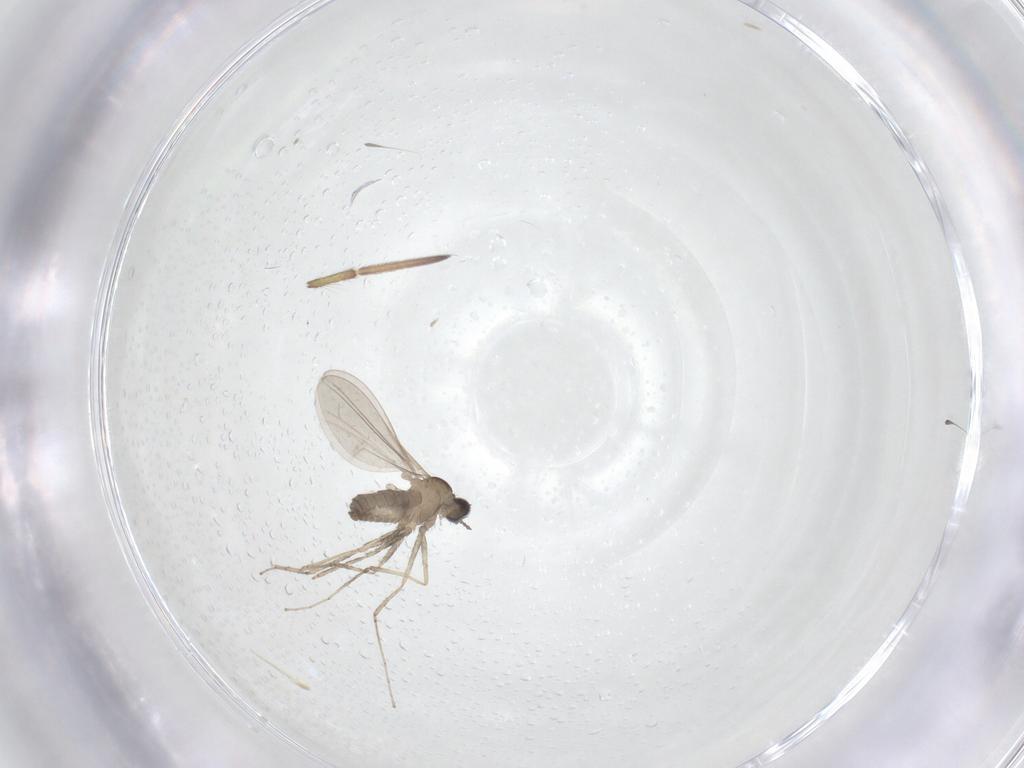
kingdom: Animalia
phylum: Arthropoda
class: Insecta
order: Diptera
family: Cecidomyiidae
